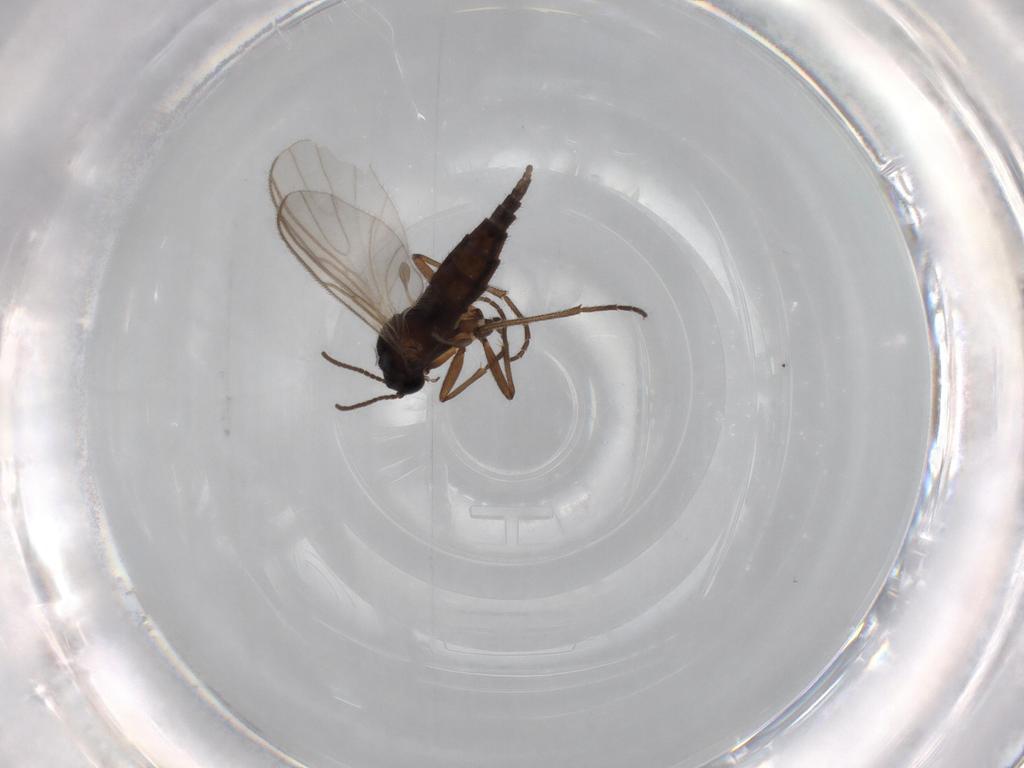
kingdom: Animalia
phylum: Arthropoda
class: Insecta
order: Diptera
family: Sciaridae
